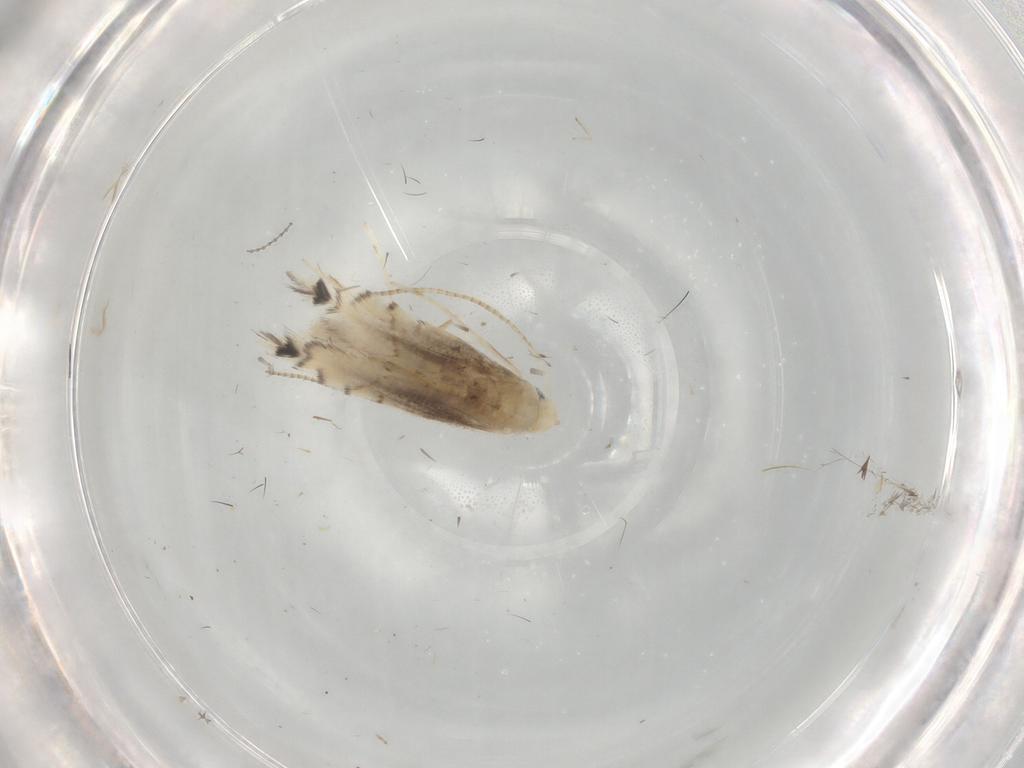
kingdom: Animalia
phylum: Arthropoda
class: Insecta
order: Lepidoptera
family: Gracillariidae
